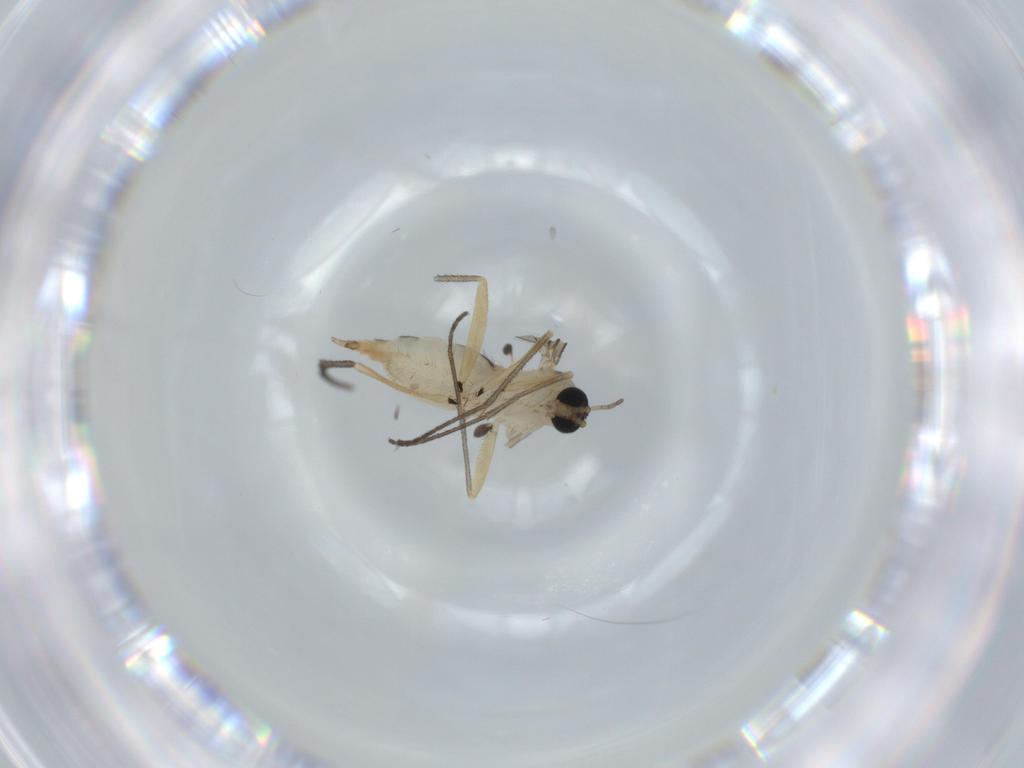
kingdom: Animalia
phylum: Arthropoda
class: Insecta
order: Diptera
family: Sciaridae
